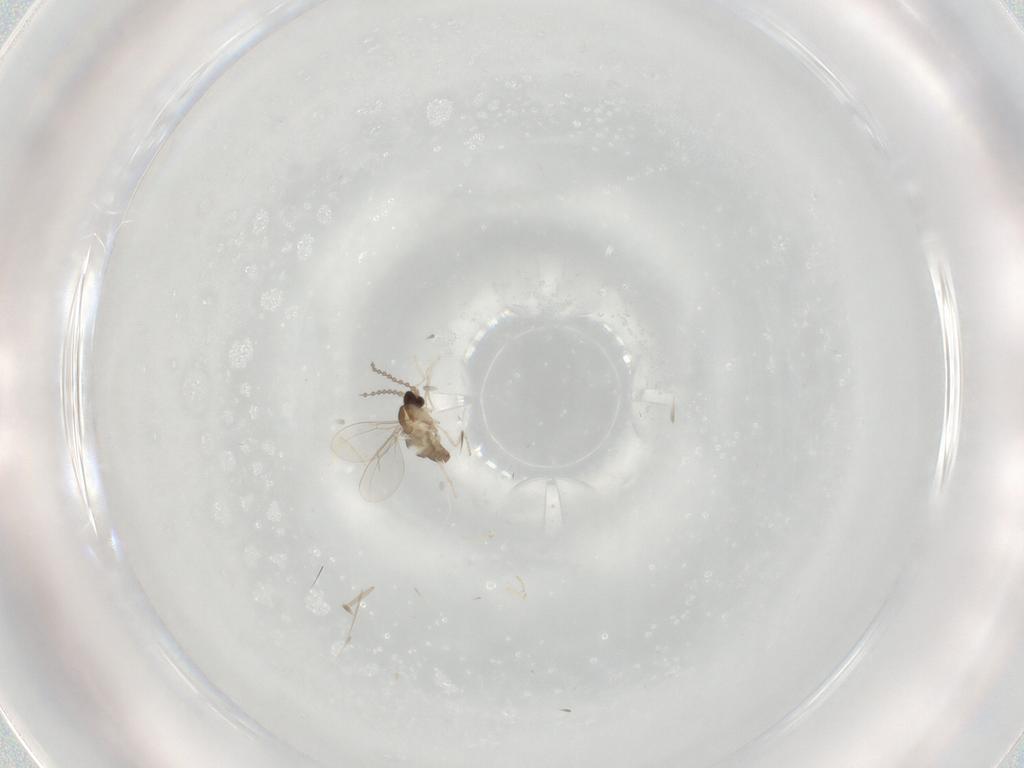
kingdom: Animalia
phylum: Arthropoda
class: Insecta
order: Diptera
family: Cecidomyiidae
